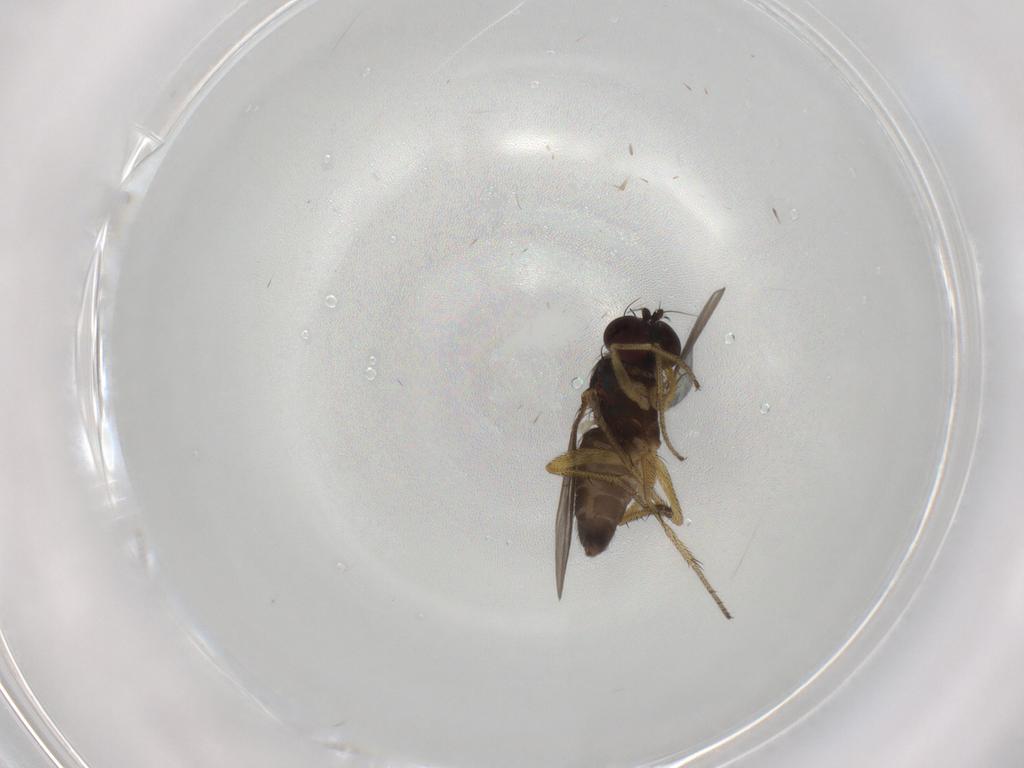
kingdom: Animalia
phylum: Arthropoda
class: Insecta
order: Diptera
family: Dolichopodidae
